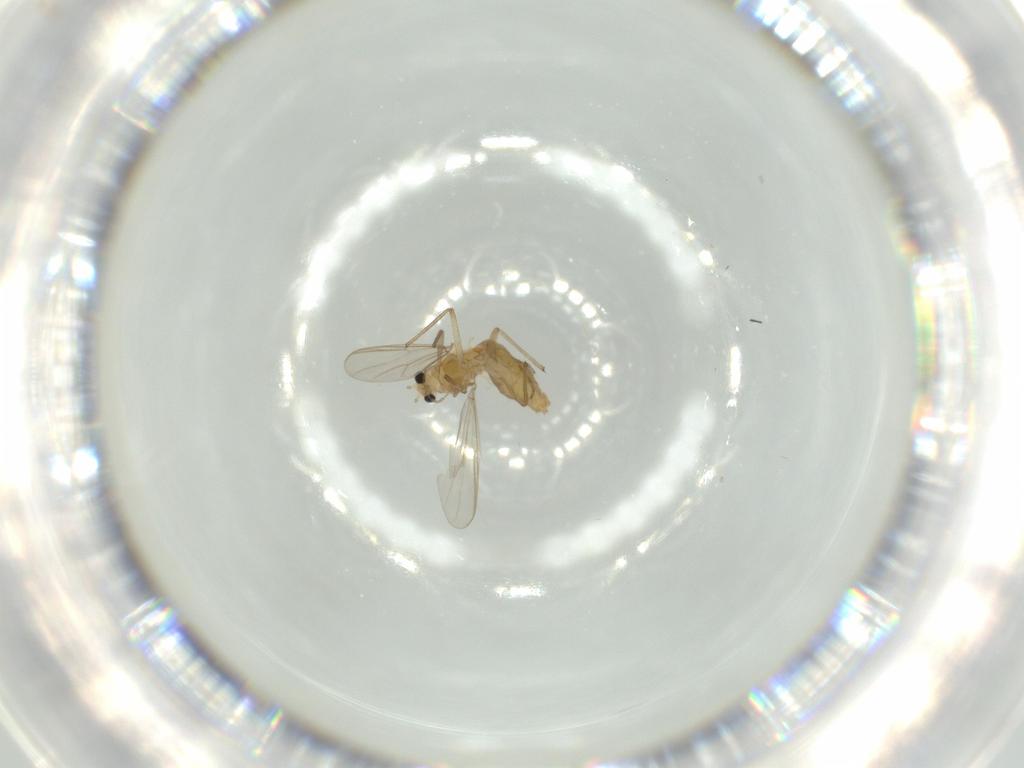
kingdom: Animalia
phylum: Arthropoda
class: Insecta
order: Diptera
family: Chironomidae
